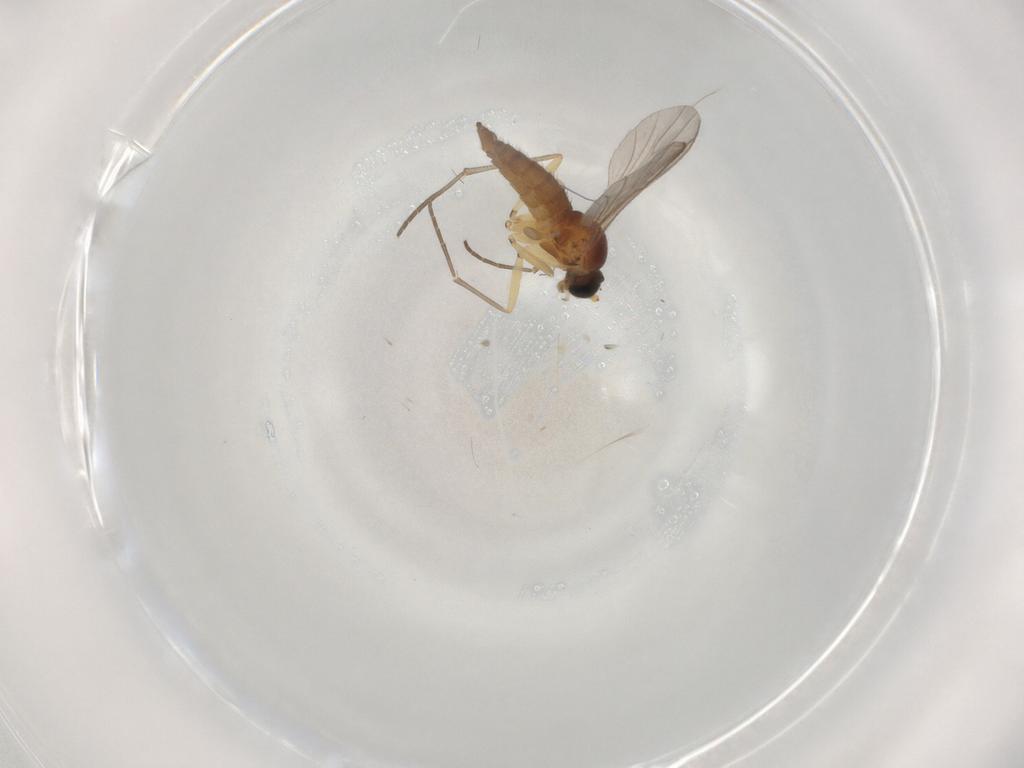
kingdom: Animalia
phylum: Arthropoda
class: Insecta
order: Diptera
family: Sciaridae
